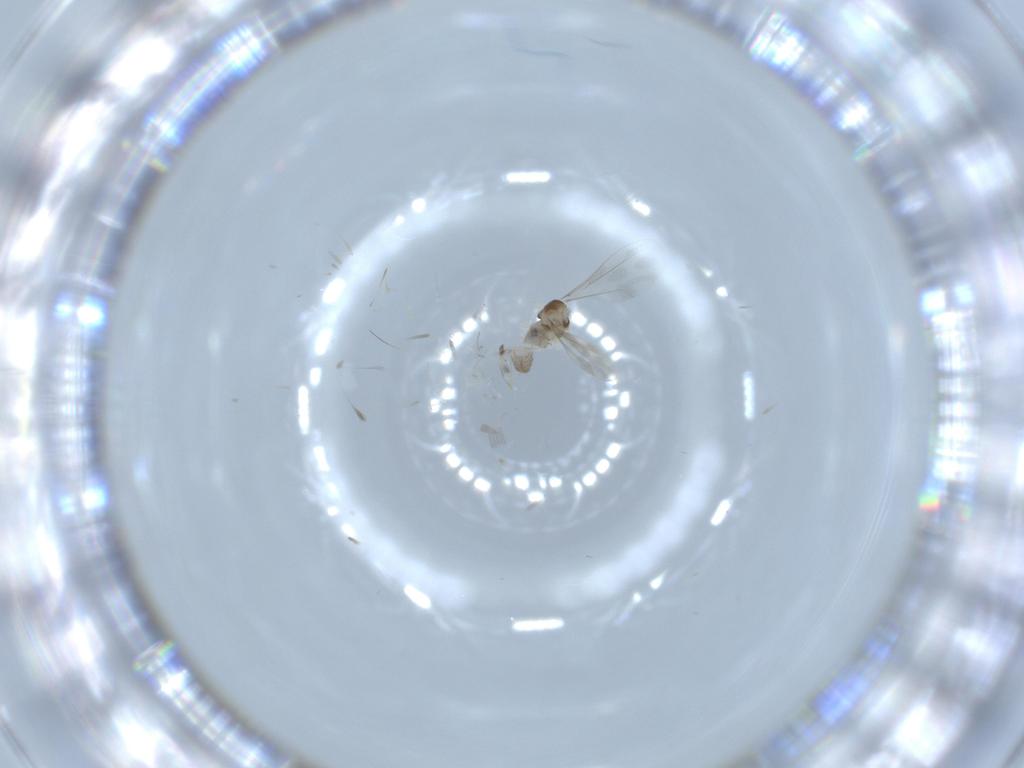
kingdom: Animalia
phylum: Arthropoda
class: Insecta
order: Diptera
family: Cecidomyiidae
